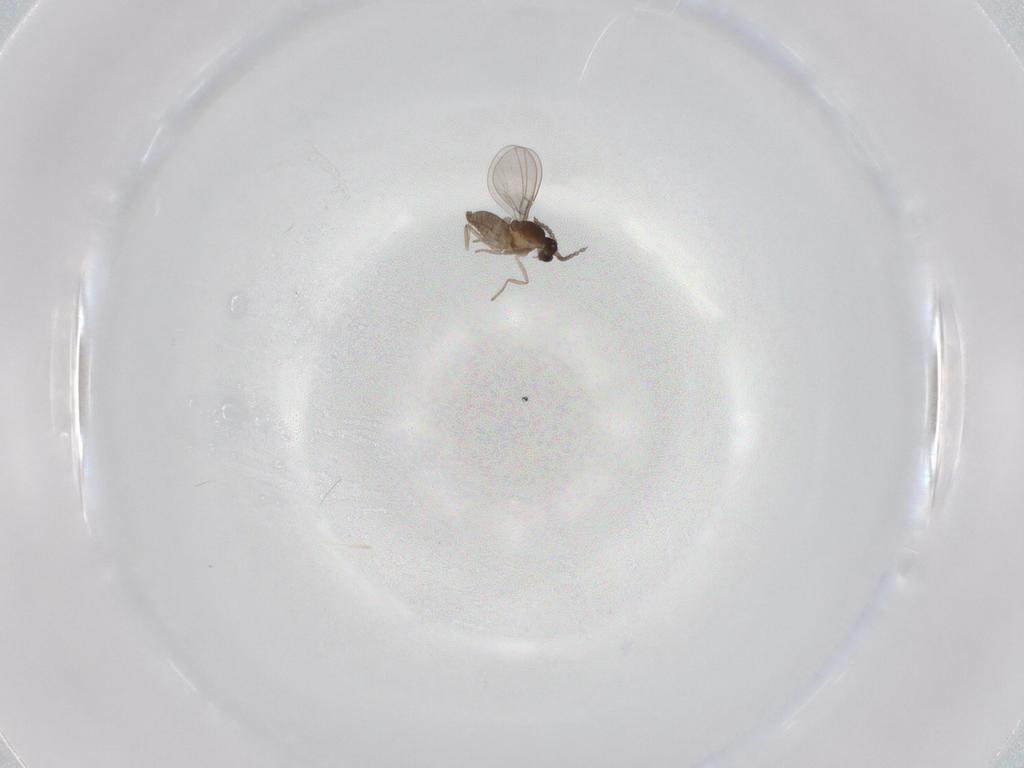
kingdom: Animalia
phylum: Arthropoda
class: Insecta
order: Diptera
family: Cecidomyiidae
